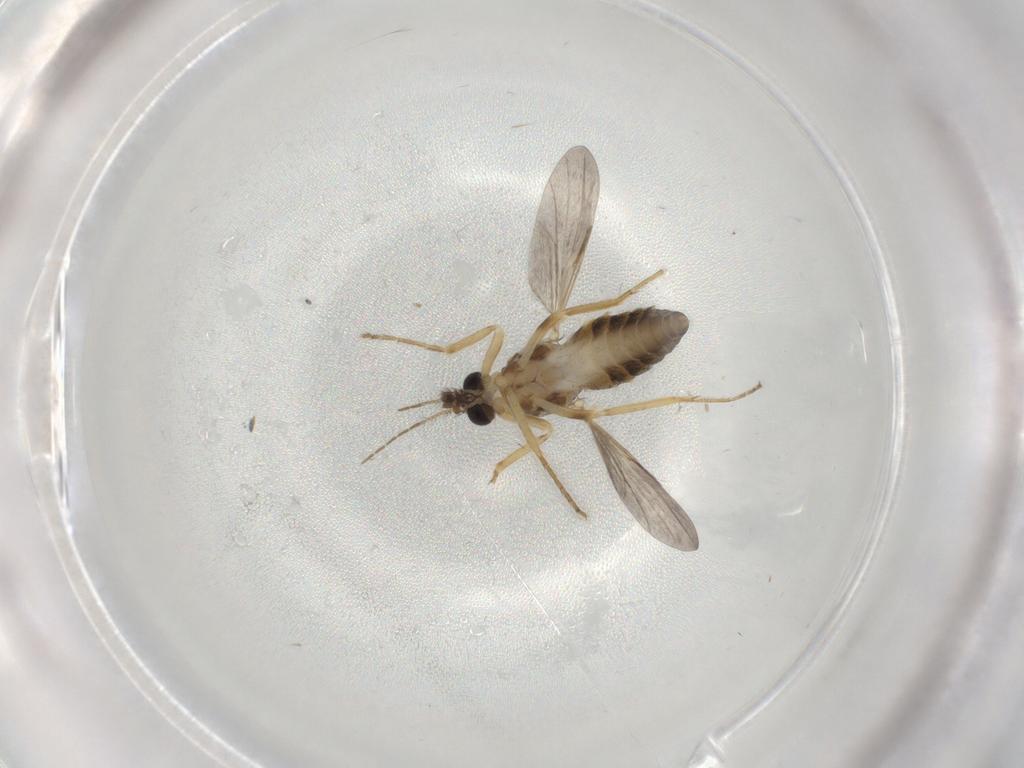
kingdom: Animalia
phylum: Arthropoda
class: Insecta
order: Diptera
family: Ceratopogonidae
